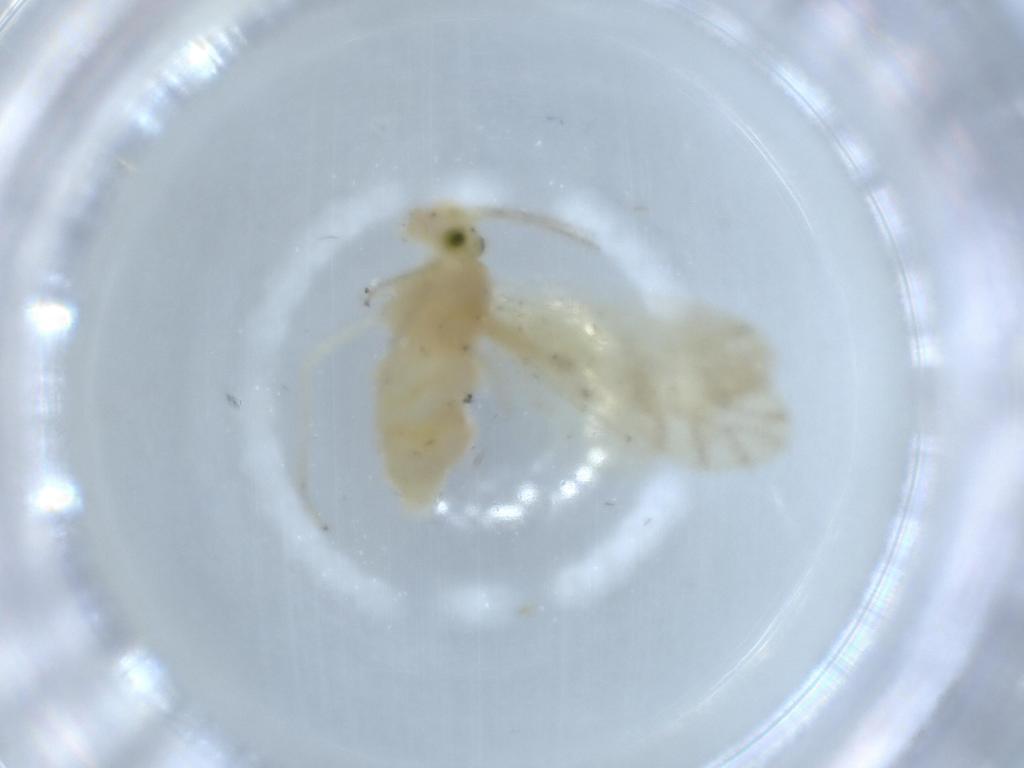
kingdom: Animalia
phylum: Arthropoda
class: Insecta
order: Psocodea
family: Caeciliusidae
